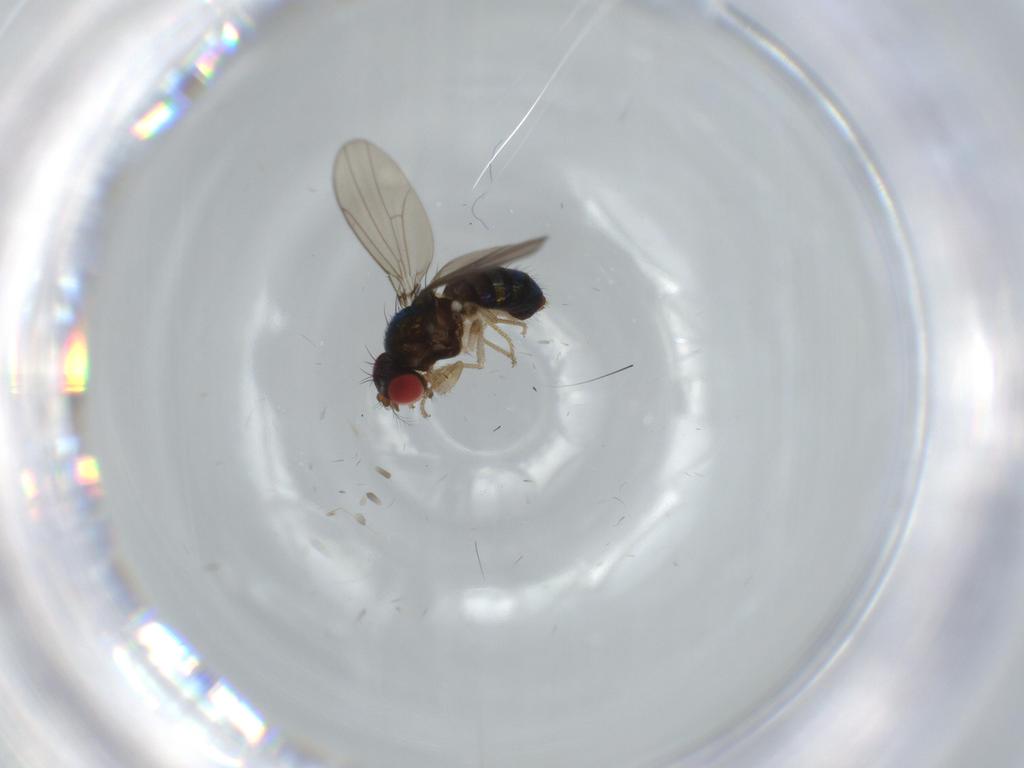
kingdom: Animalia
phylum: Arthropoda
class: Insecta
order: Diptera
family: Drosophilidae
